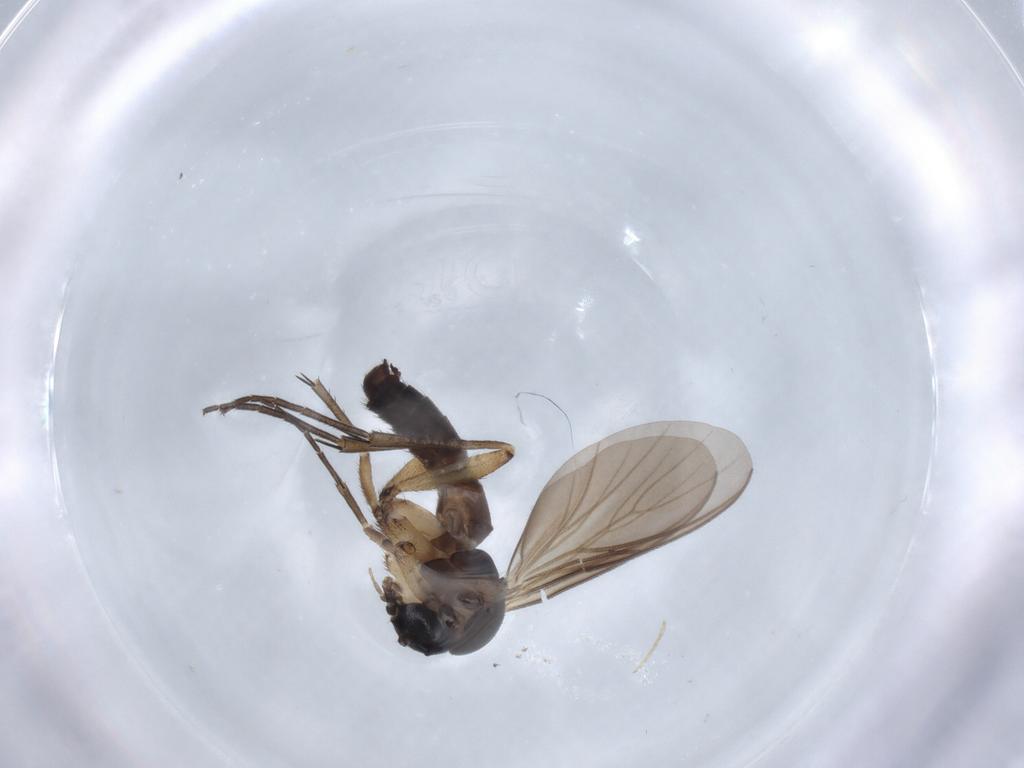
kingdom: Animalia
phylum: Arthropoda
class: Insecta
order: Diptera
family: Mycetophilidae
